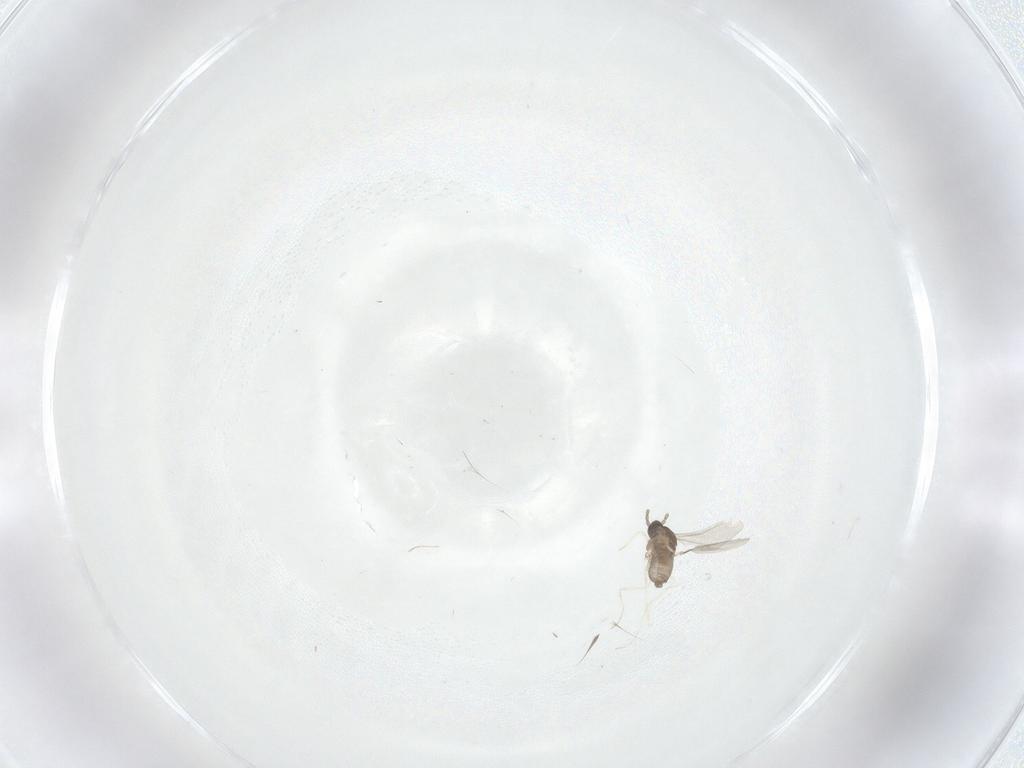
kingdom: Animalia
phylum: Arthropoda
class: Insecta
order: Diptera
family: Cecidomyiidae
